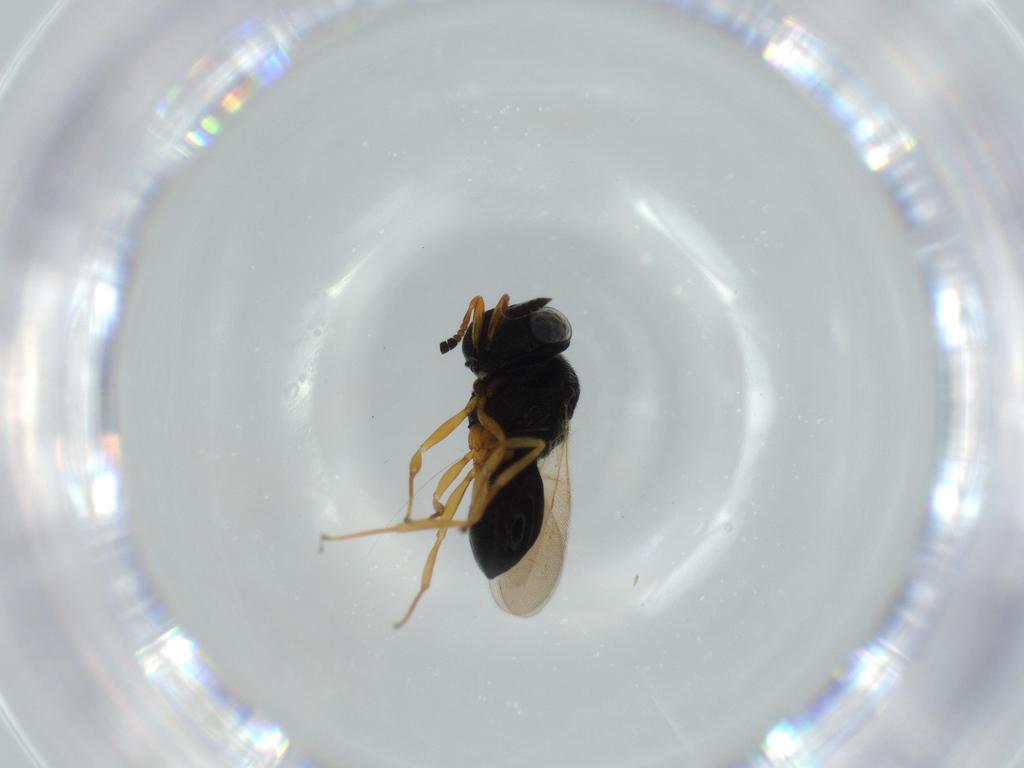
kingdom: Animalia
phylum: Arthropoda
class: Insecta
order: Hymenoptera
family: Scelionidae
